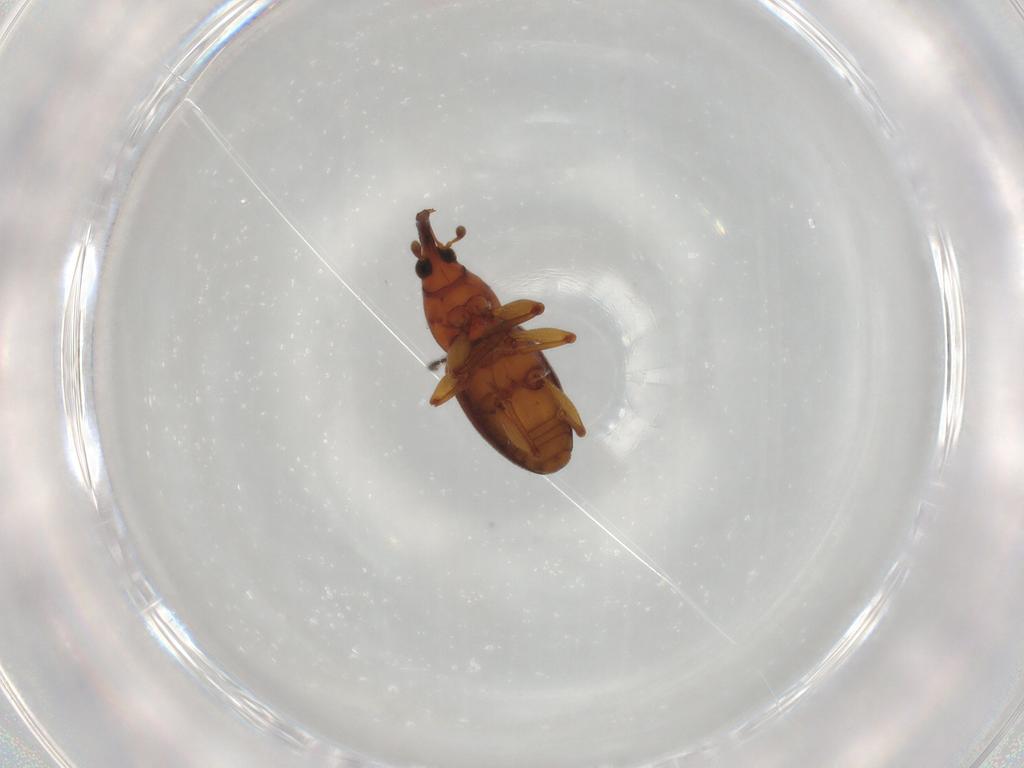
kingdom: Animalia
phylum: Arthropoda
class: Insecta
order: Coleoptera
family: Curculionidae
